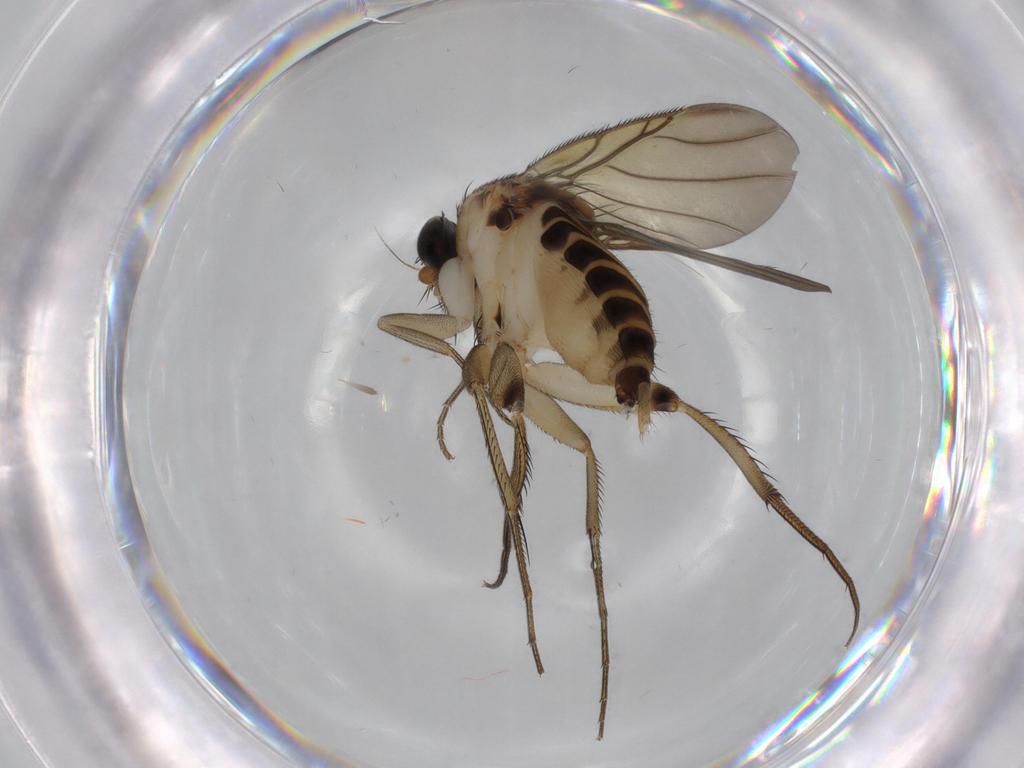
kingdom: Animalia
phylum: Arthropoda
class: Insecta
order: Diptera
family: Phoridae
